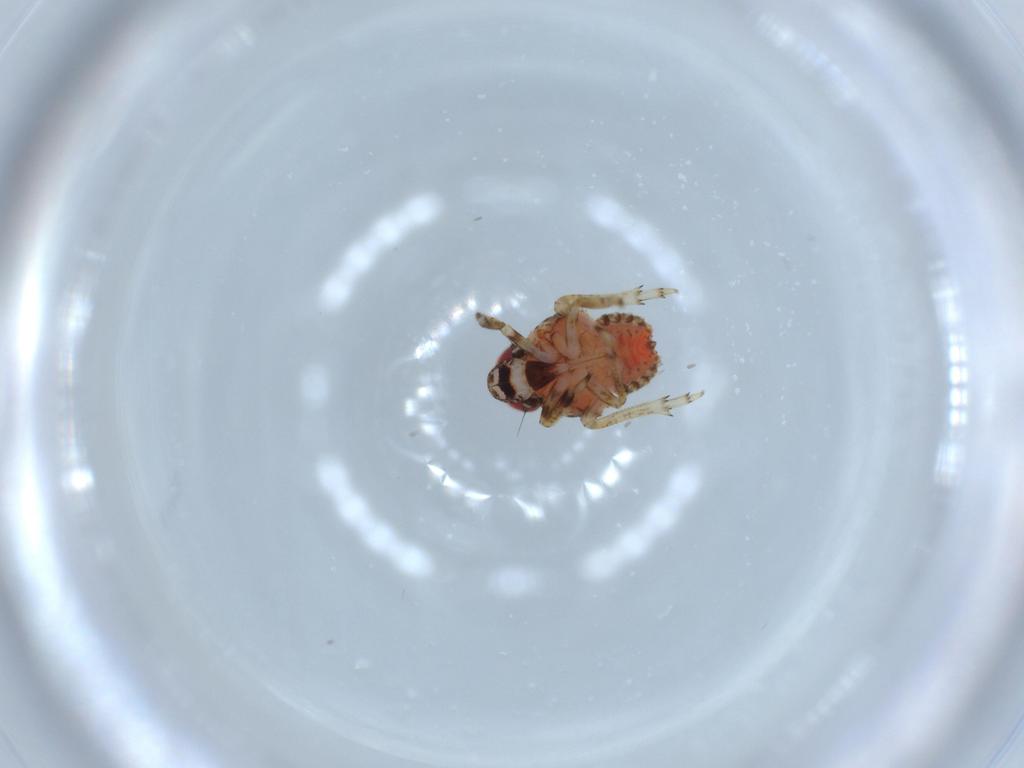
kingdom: Animalia
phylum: Arthropoda
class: Insecta
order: Hemiptera
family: Issidae
